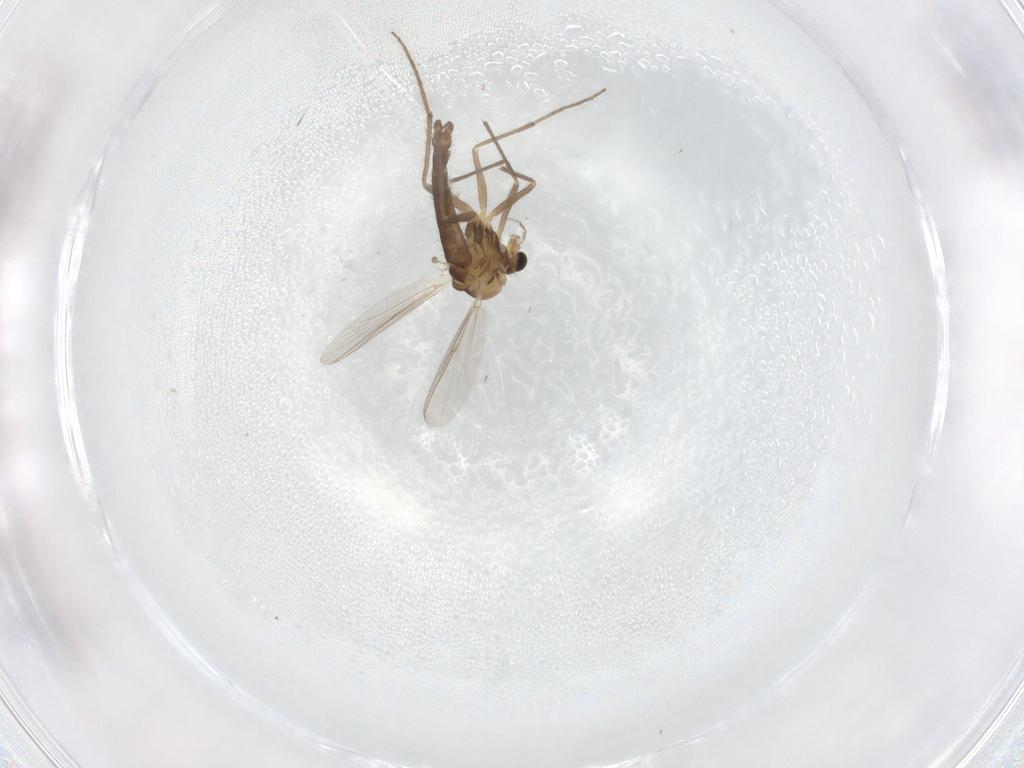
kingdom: Animalia
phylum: Arthropoda
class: Insecta
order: Diptera
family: Chironomidae
